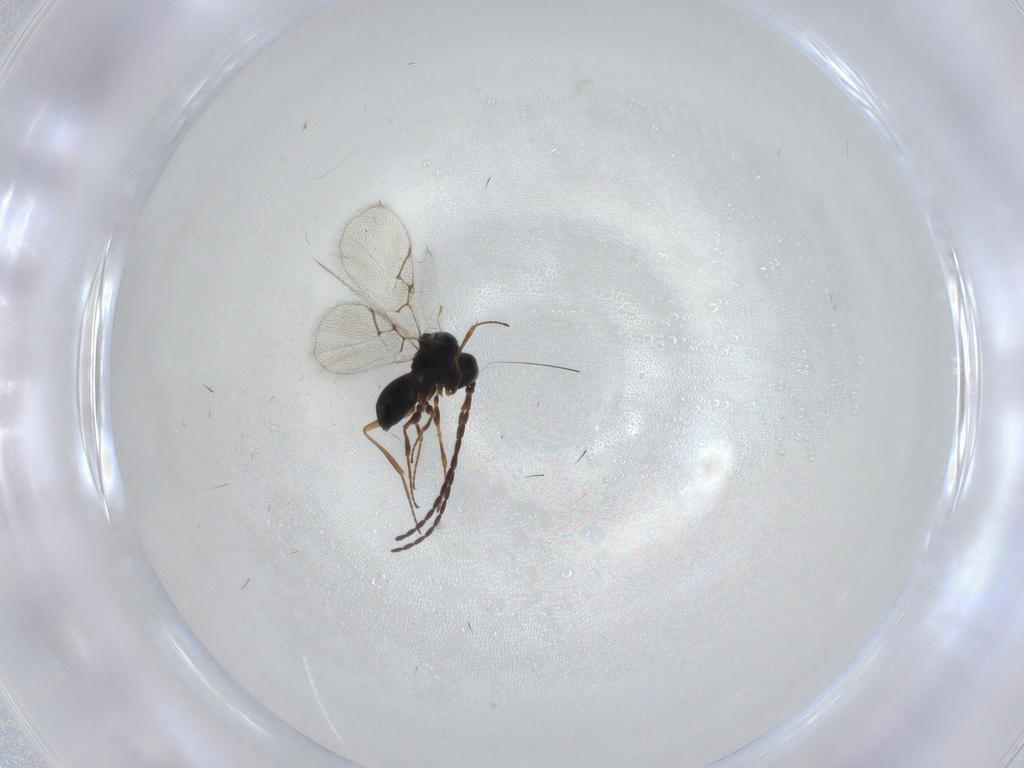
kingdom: Animalia
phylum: Arthropoda
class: Insecta
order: Hymenoptera
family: Figitidae
